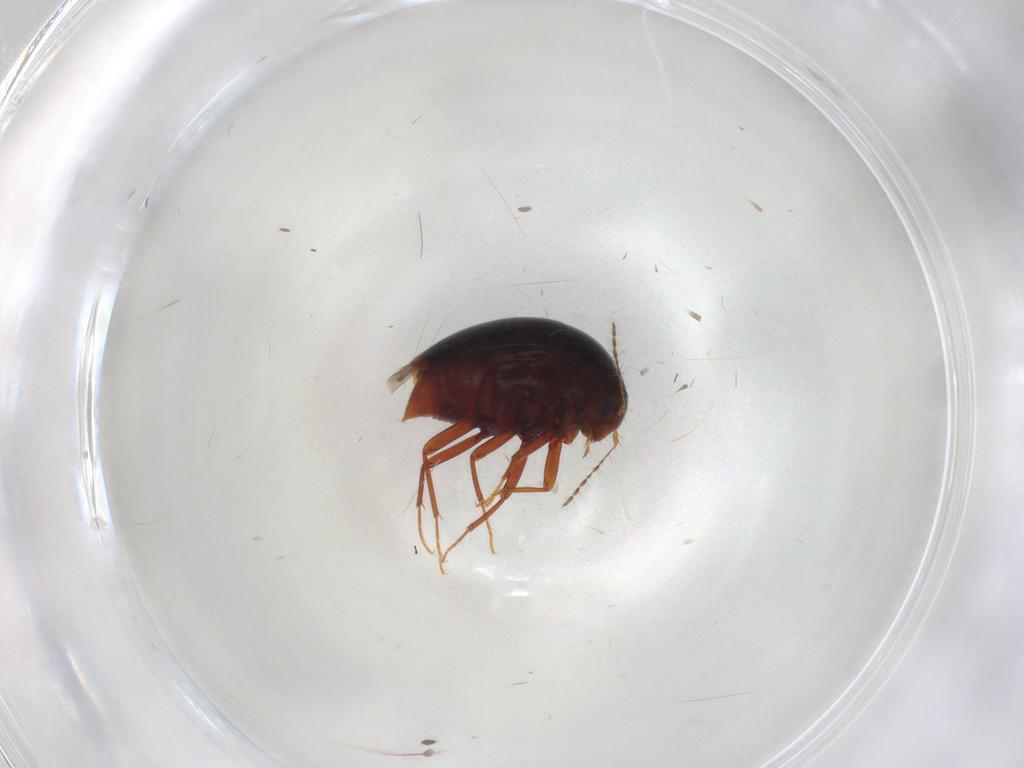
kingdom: Animalia
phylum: Arthropoda
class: Insecta
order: Coleoptera
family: Staphylinidae
